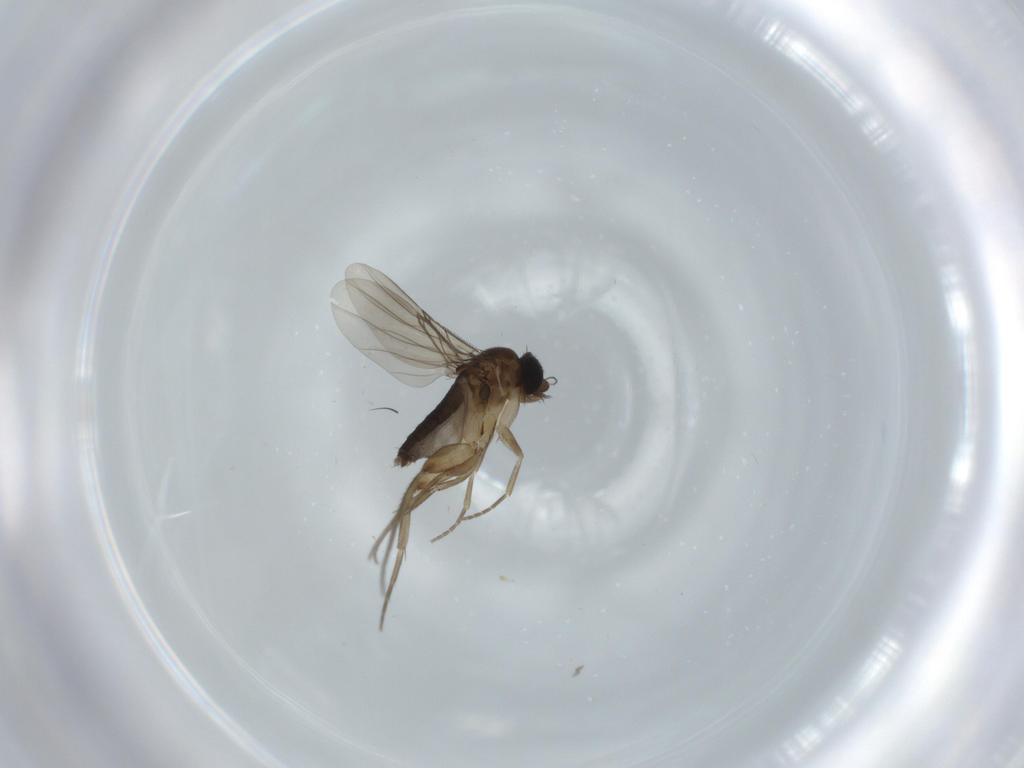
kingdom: Animalia
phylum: Arthropoda
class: Insecta
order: Diptera
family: Phoridae
